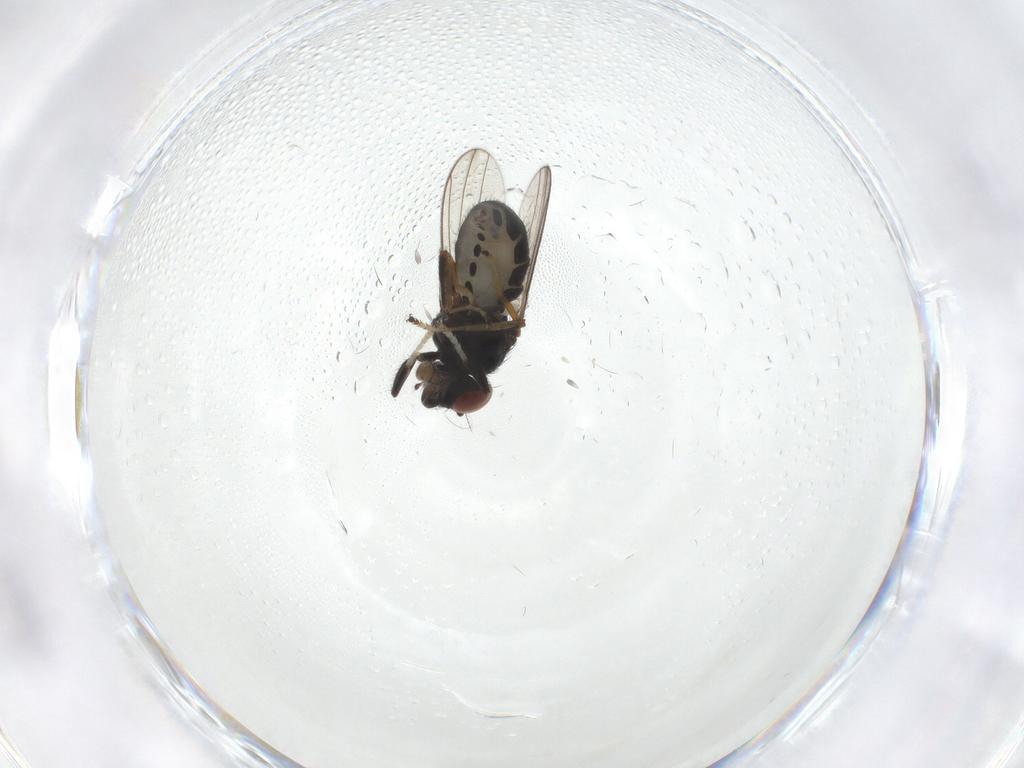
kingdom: Animalia
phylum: Arthropoda
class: Insecta
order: Diptera
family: Ephydridae
